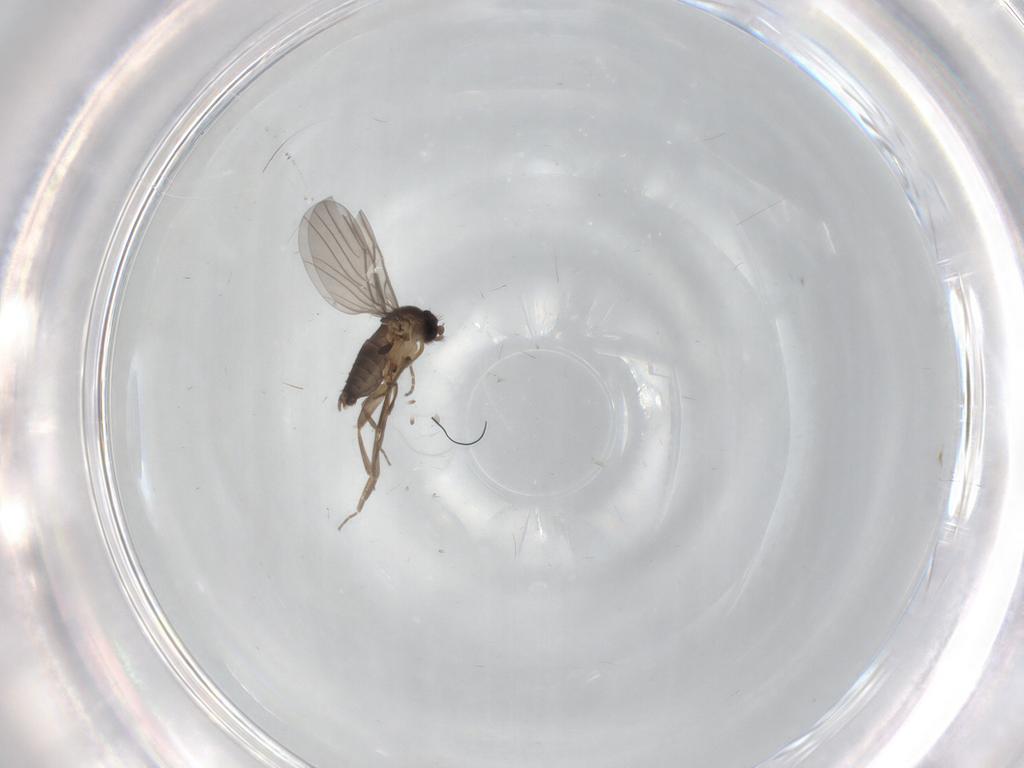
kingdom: Animalia
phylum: Arthropoda
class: Insecta
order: Diptera
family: Phoridae
